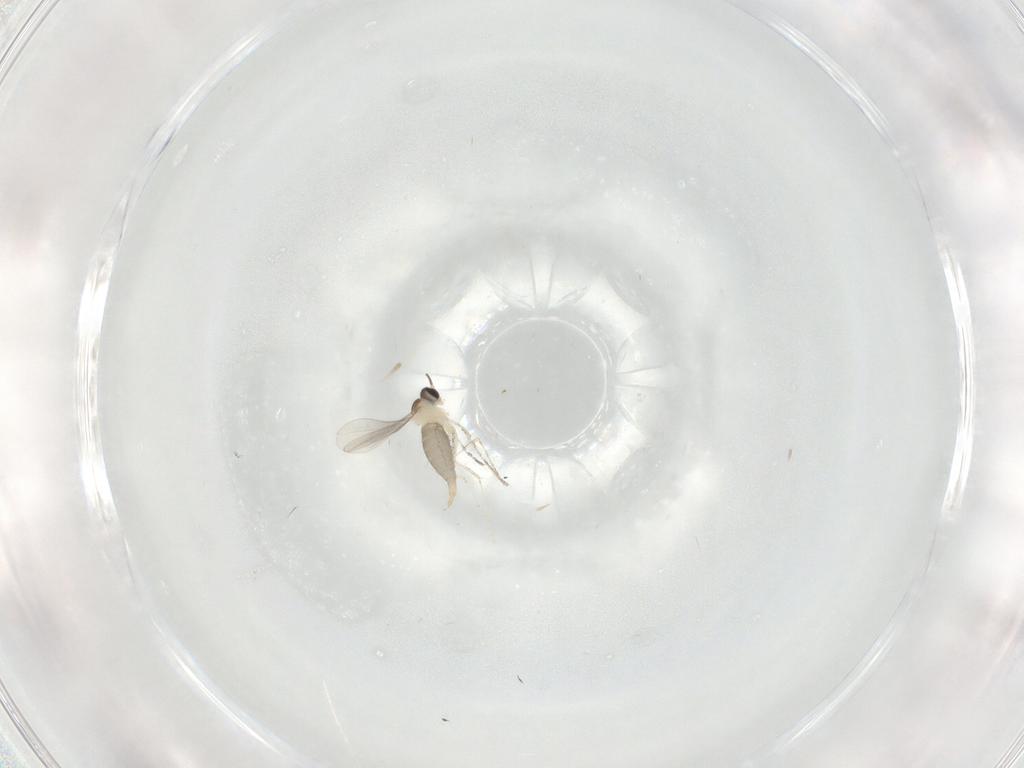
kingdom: Animalia
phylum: Arthropoda
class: Insecta
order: Diptera
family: Cecidomyiidae
